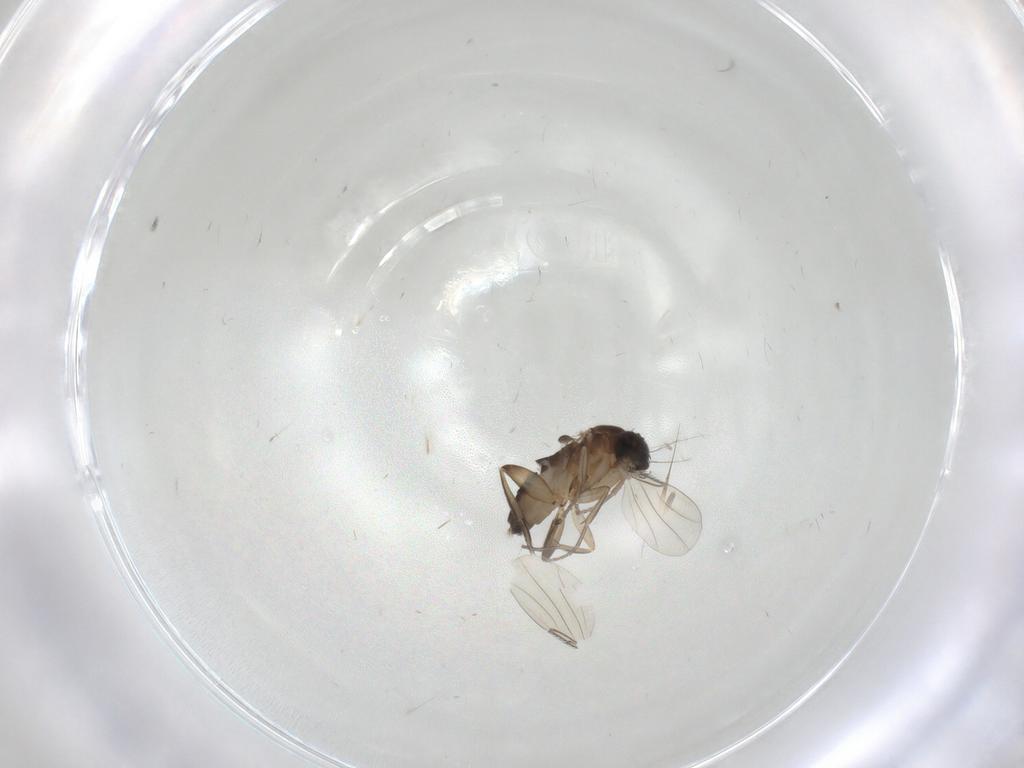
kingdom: Animalia
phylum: Arthropoda
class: Insecta
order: Diptera
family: Phoridae
